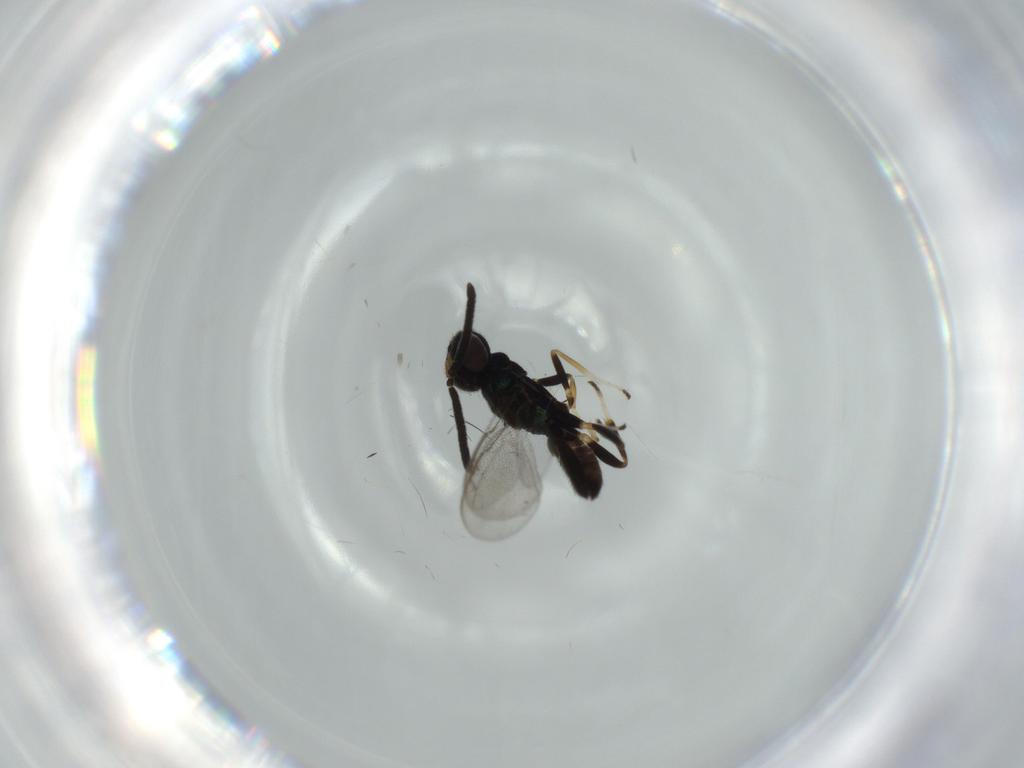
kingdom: Animalia
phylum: Arthropoda
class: Insecta
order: Hymenoptera
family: Eupelmidae
